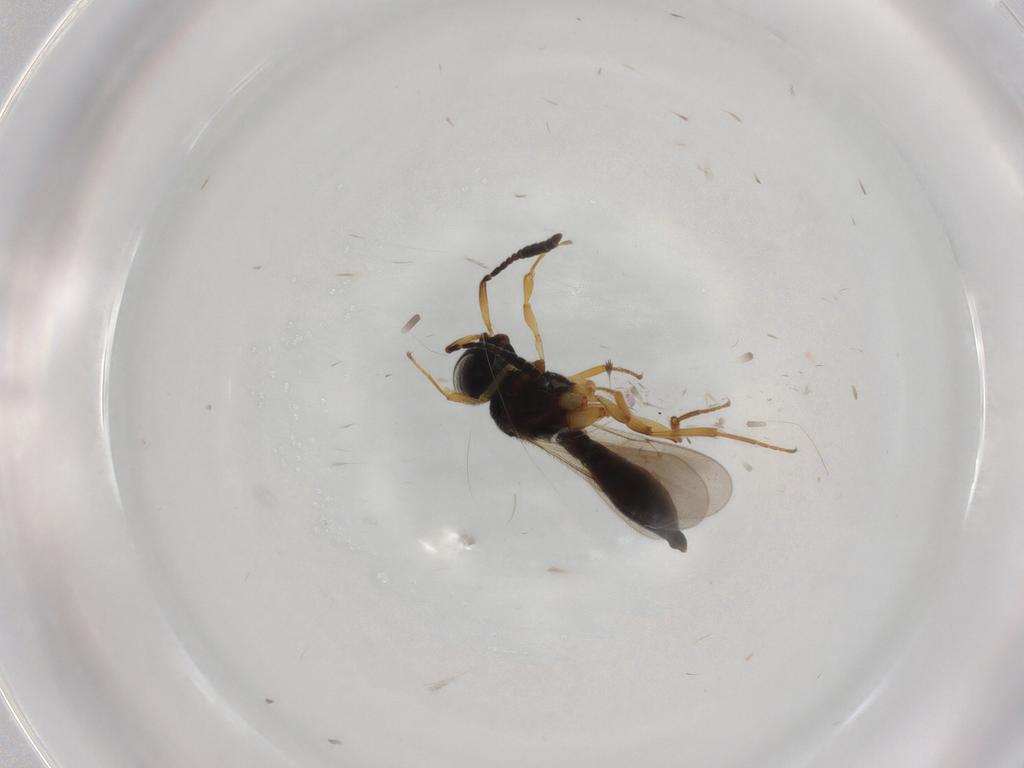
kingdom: Animalia
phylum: Arthropoda
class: Insecta
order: Hymenoptera
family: Scelionidae
